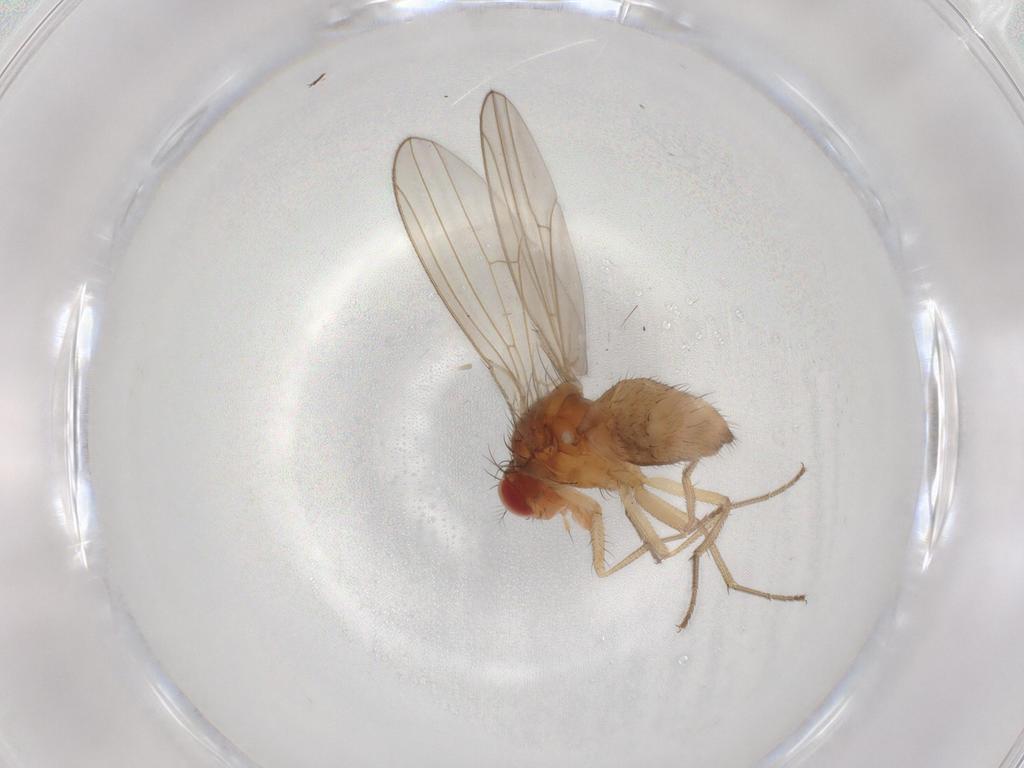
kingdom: Animalia
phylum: Arthropoda
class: Insecta
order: Diptera
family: Drosophilidae
